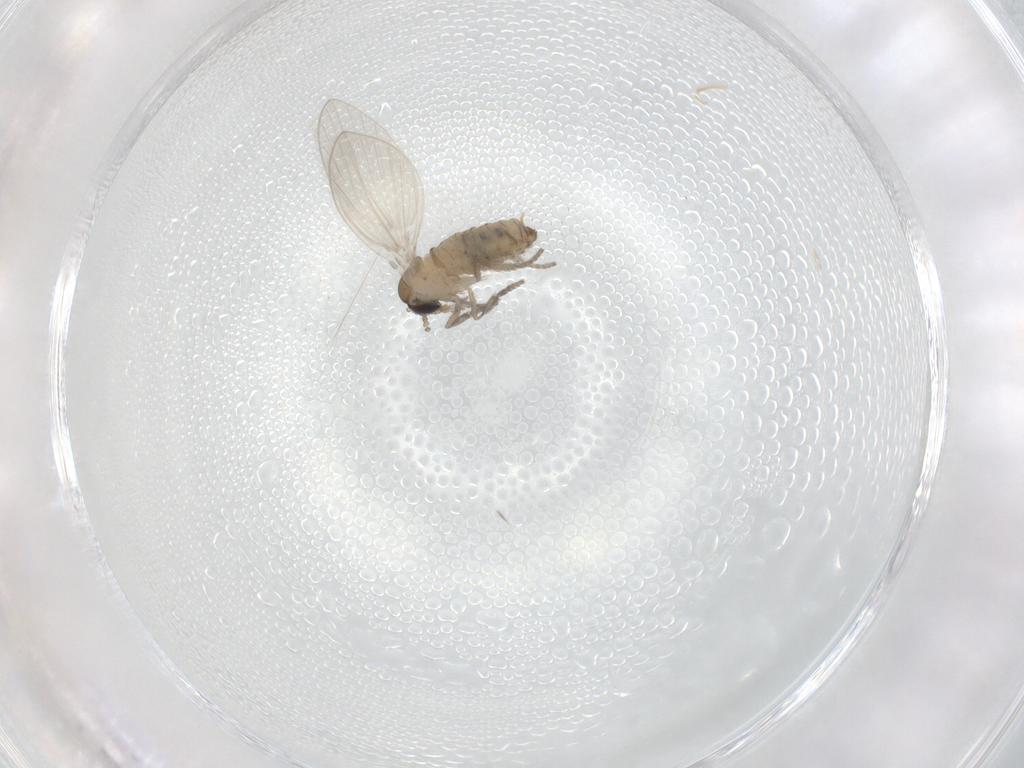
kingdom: Animalia
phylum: Arthropoda
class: Insecta
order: Diptera
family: Psychodidae
